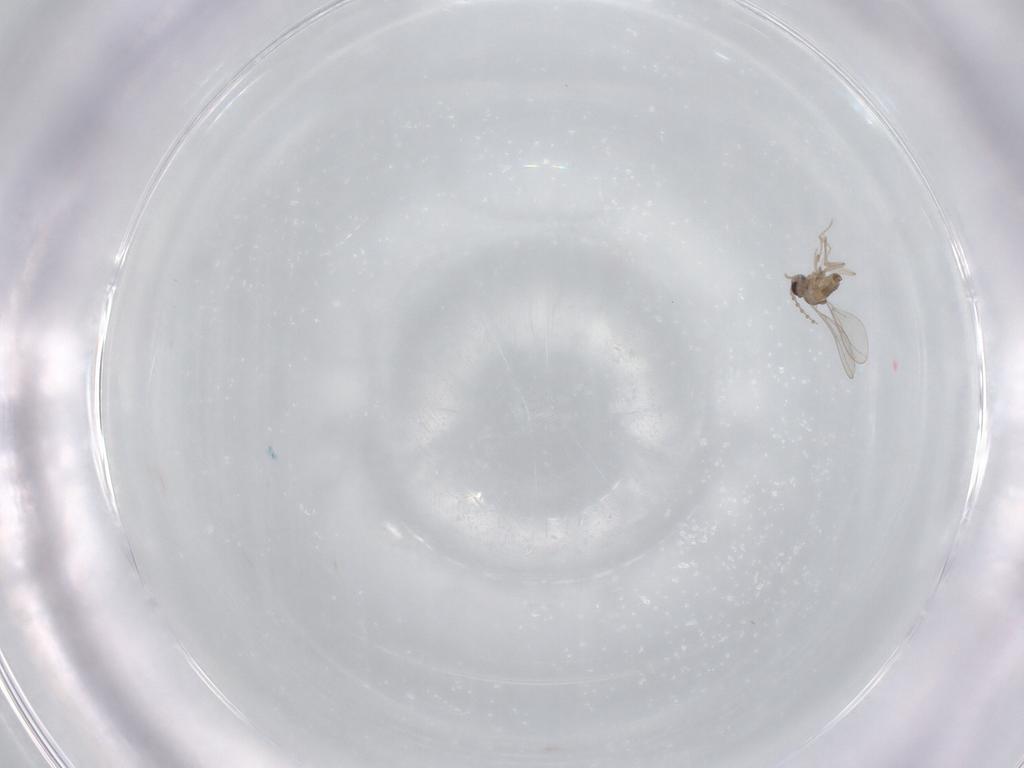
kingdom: Animalia
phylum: Arthropoda
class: Insecta
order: Diptera
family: Cecidomyiidae
